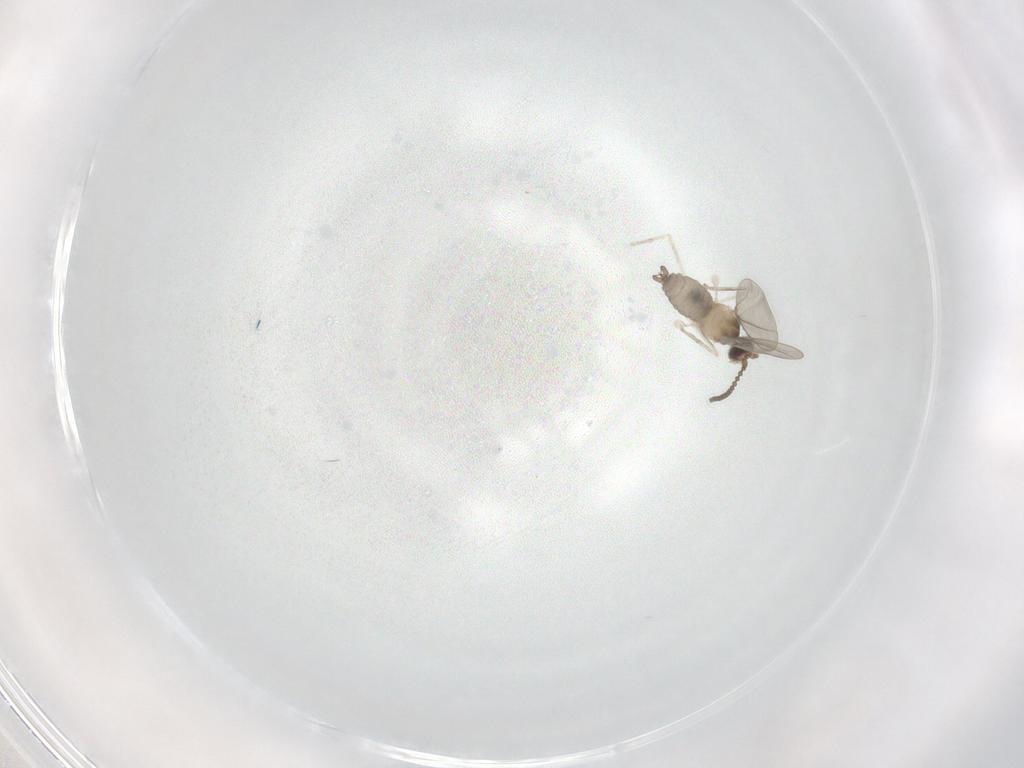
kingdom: Animalia
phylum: Arthropoda
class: Insecta
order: Diptera
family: Cecidomyiidae
